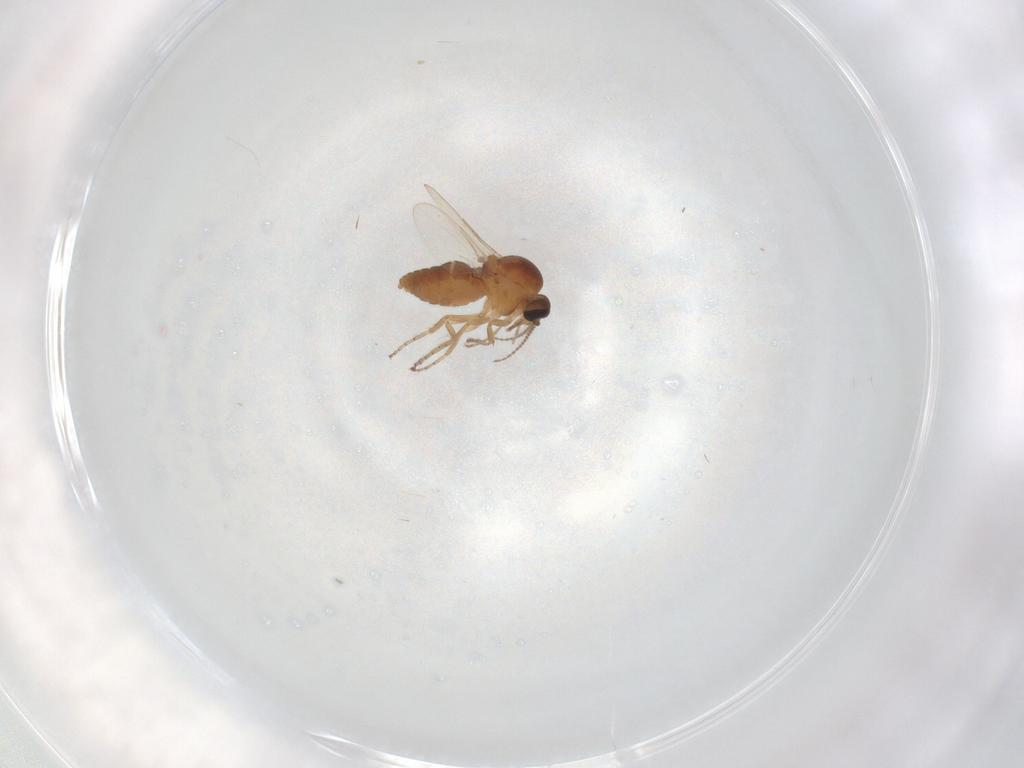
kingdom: Animalia
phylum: Arthropoda
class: Insecta
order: Diptera
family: Ceratopogonidae
